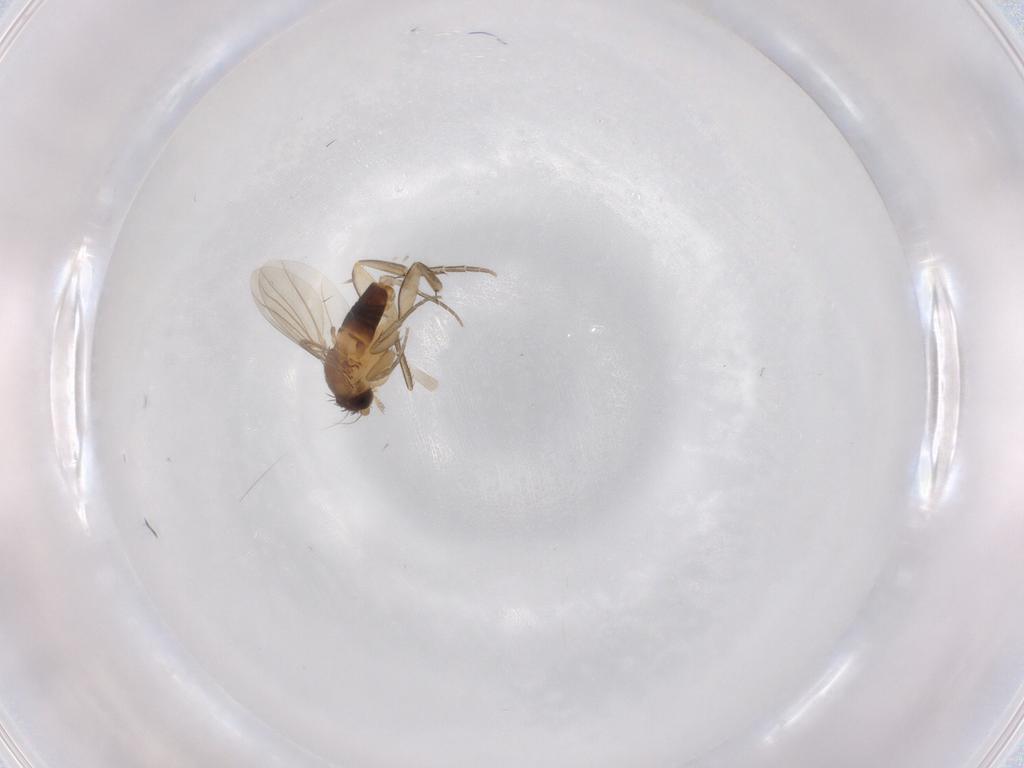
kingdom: Animalia
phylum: Arthropoda
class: Insecta
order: Diptera
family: Phoridae
